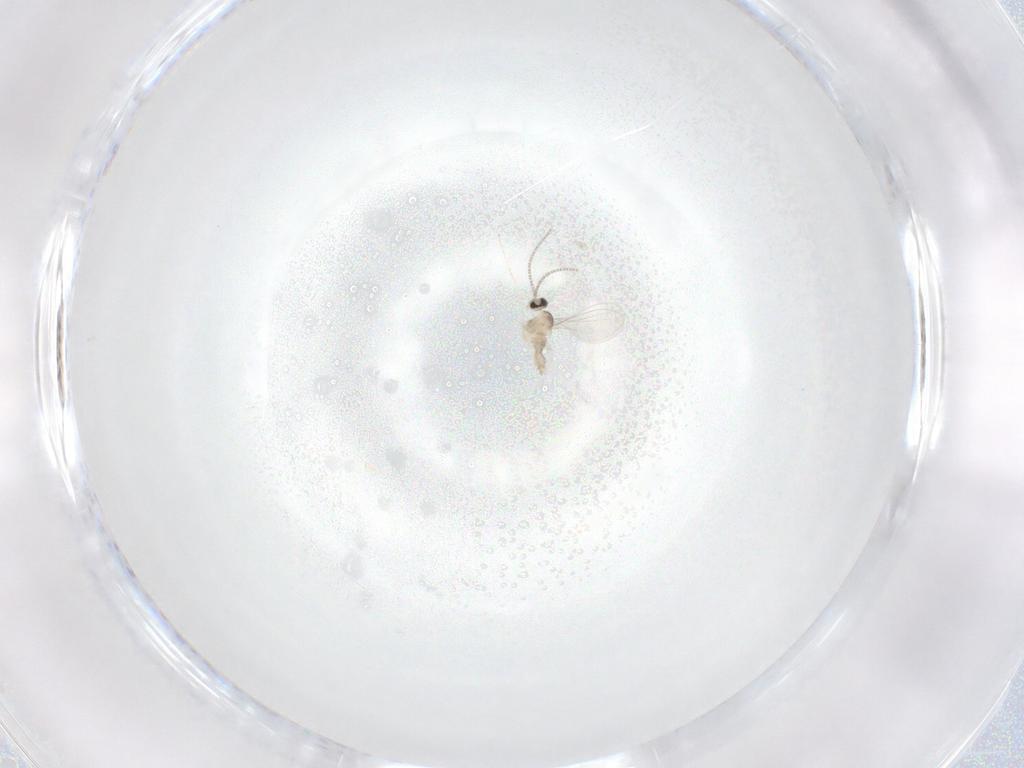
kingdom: Animalia
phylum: Arthropoda
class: Insecta
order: Diptera
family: Cecidomyiidae
